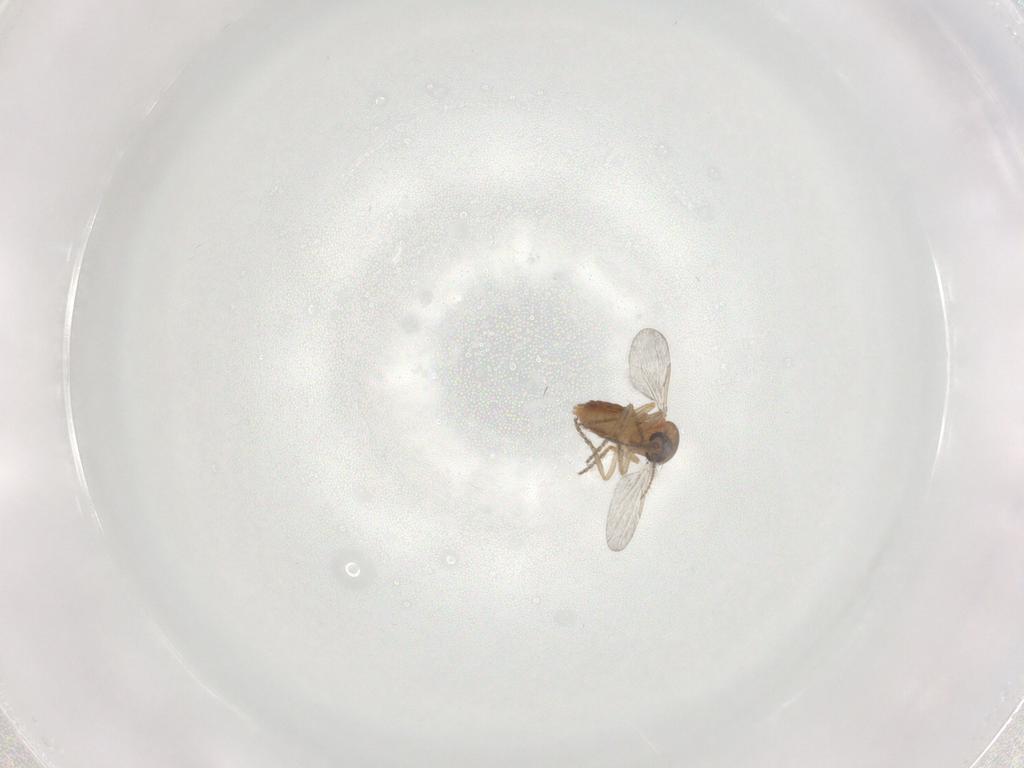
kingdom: Animalia
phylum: Arthropoda
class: Insecta
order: Diptera
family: Ceratopogonidae
